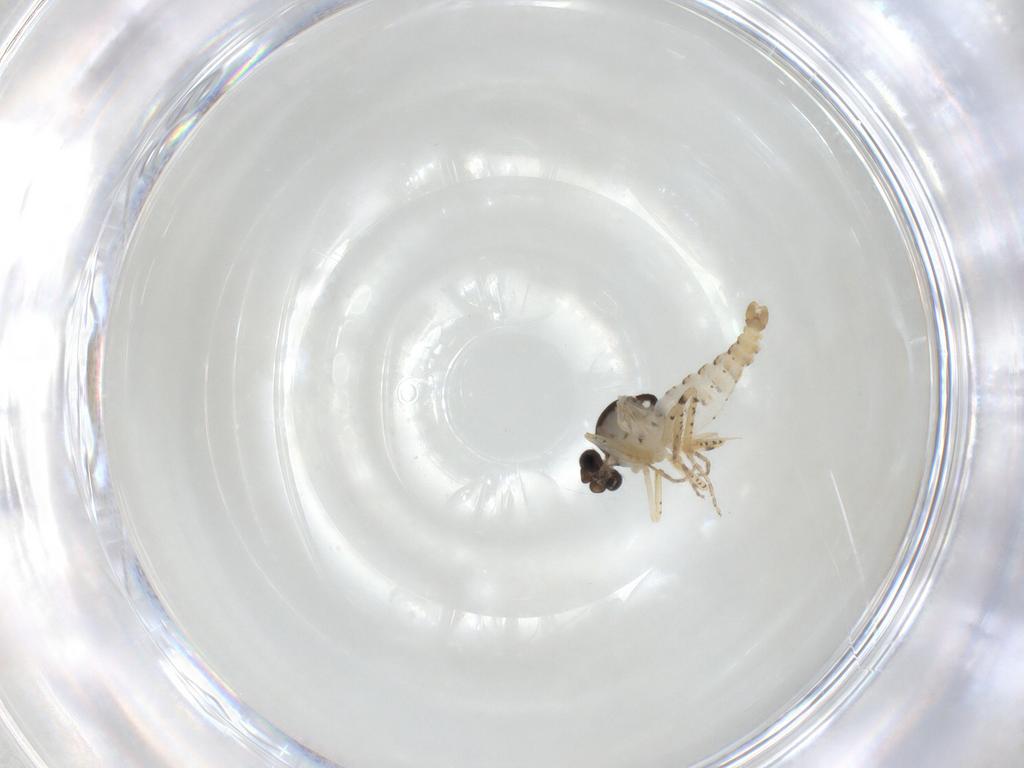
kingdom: Animalia
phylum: Arthropoda
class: Insecta
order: Diptera
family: Ceratopogonidae
